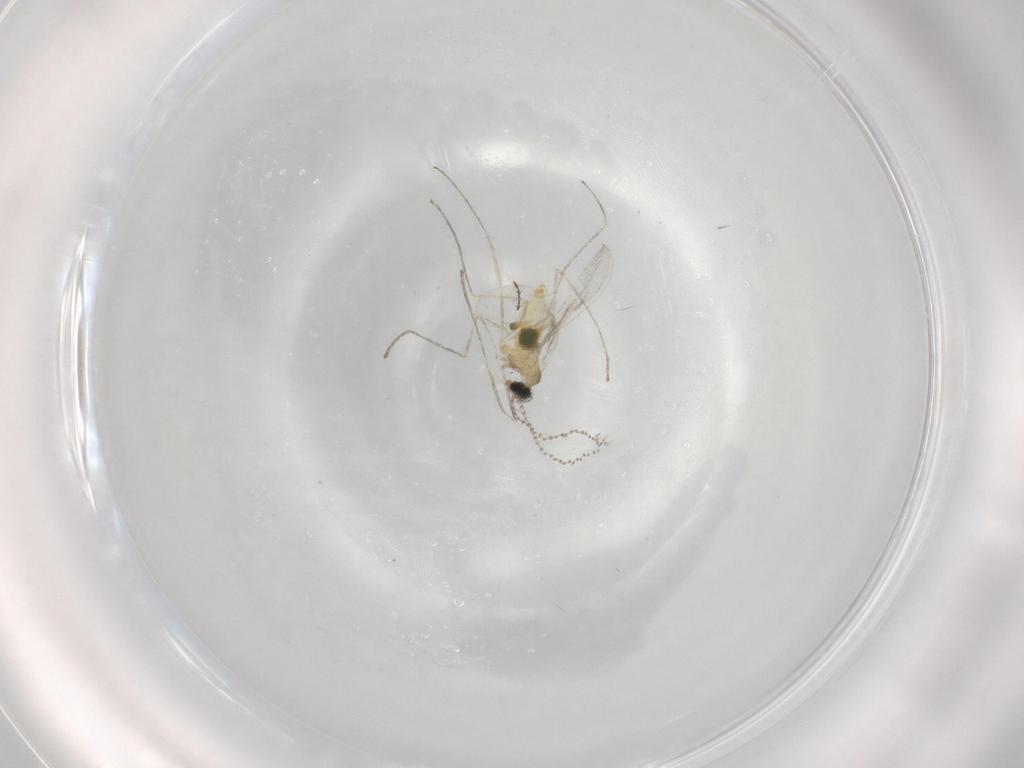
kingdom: Animalia
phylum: Arthropoda
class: Insecta
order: Diptera
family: Cecidomyiidae
